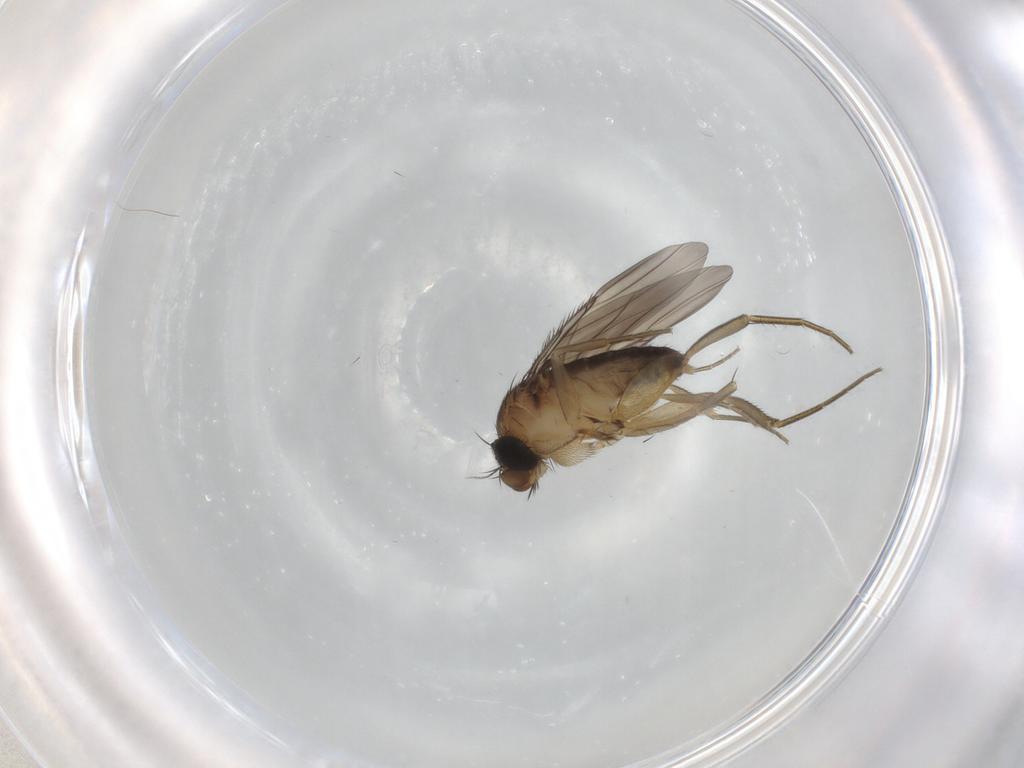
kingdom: Animalia
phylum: Arthropoda
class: Insecta
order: Diptera
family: Phoridae
